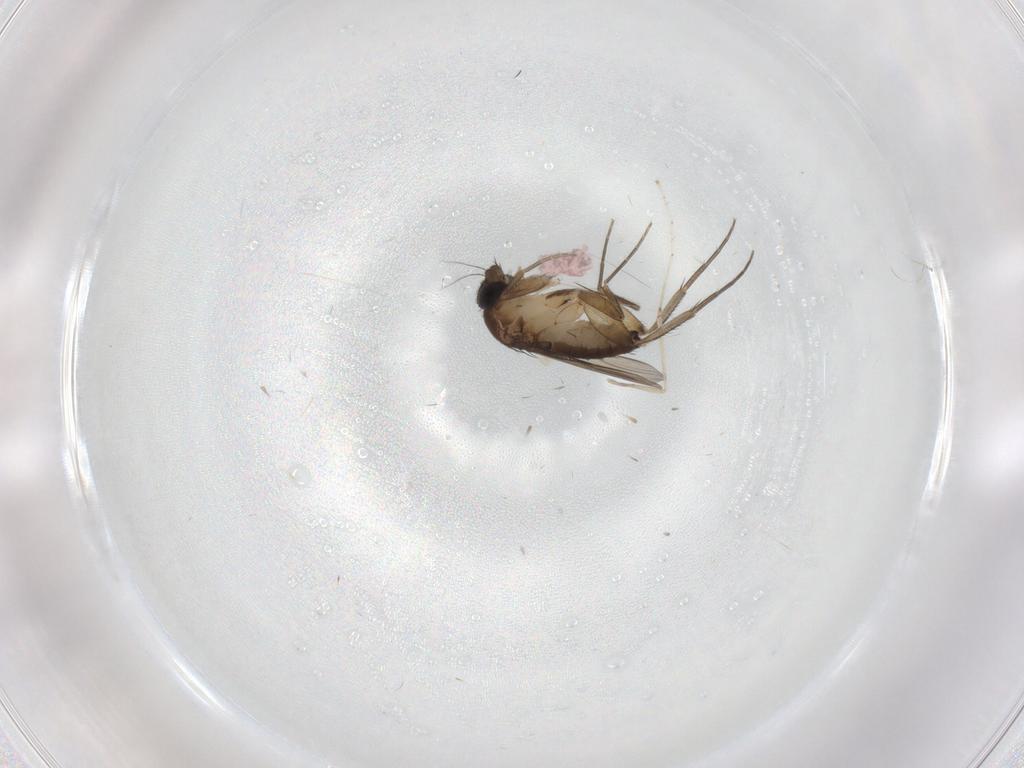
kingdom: Animalia
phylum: Arthropoda
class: Insecta
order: Diptera
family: Phoridae
